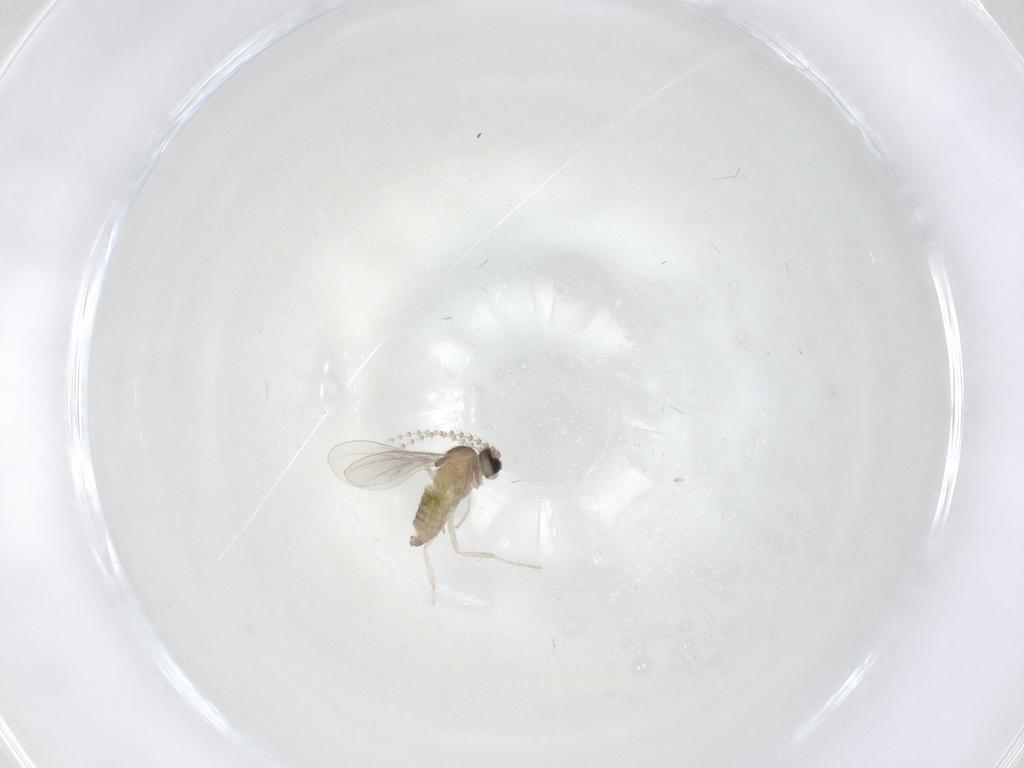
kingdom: Animalia
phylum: Arthropoda
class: Insecta
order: Diptera
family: Cecidomyiidae
